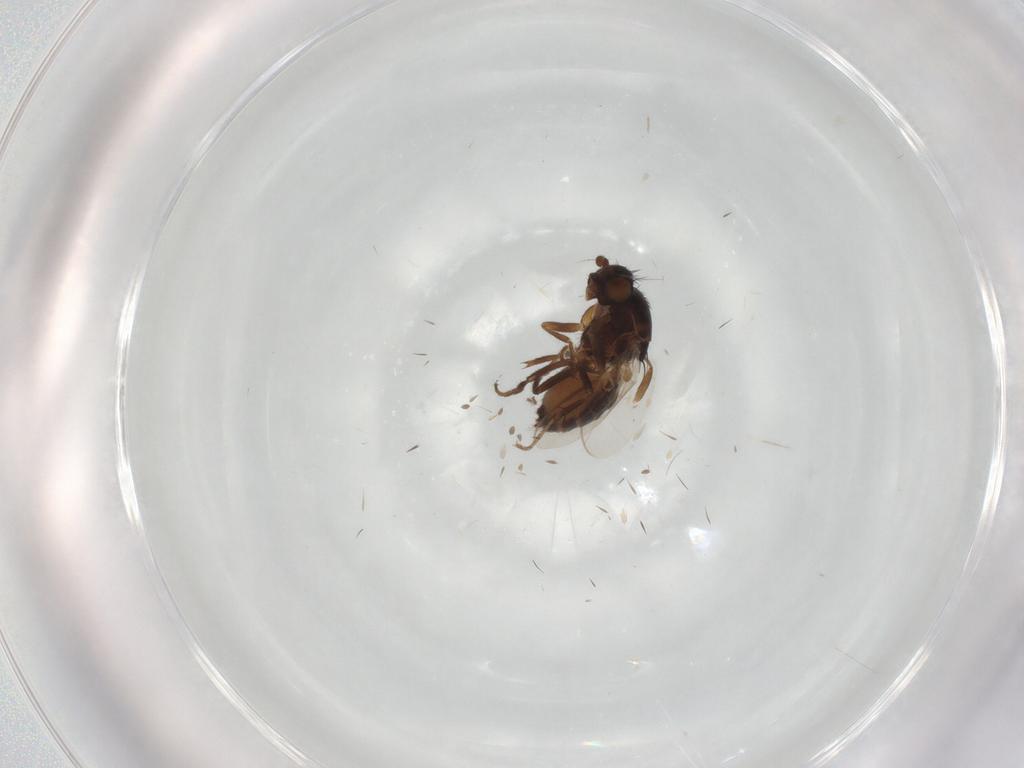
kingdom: Animalia
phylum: Arthropoda
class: Insecta
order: Diptera
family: Sphaeroceridae
